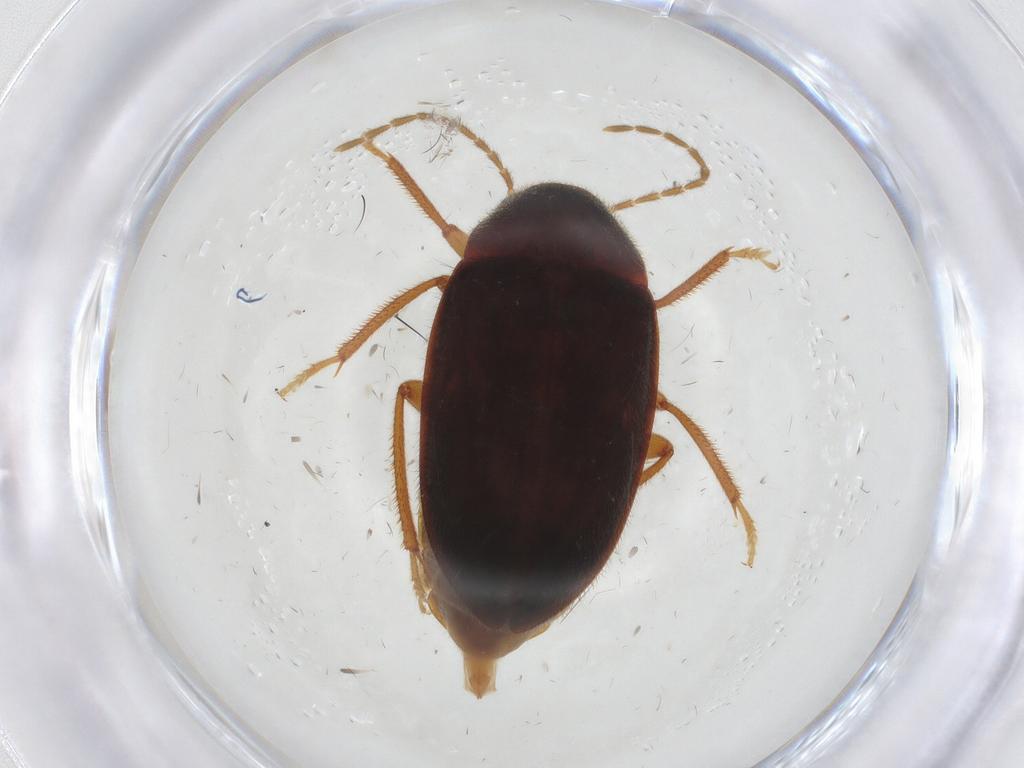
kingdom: Animalia
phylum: Arthropoda
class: Insecta
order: Coleoptera
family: Ptilodactylidae
